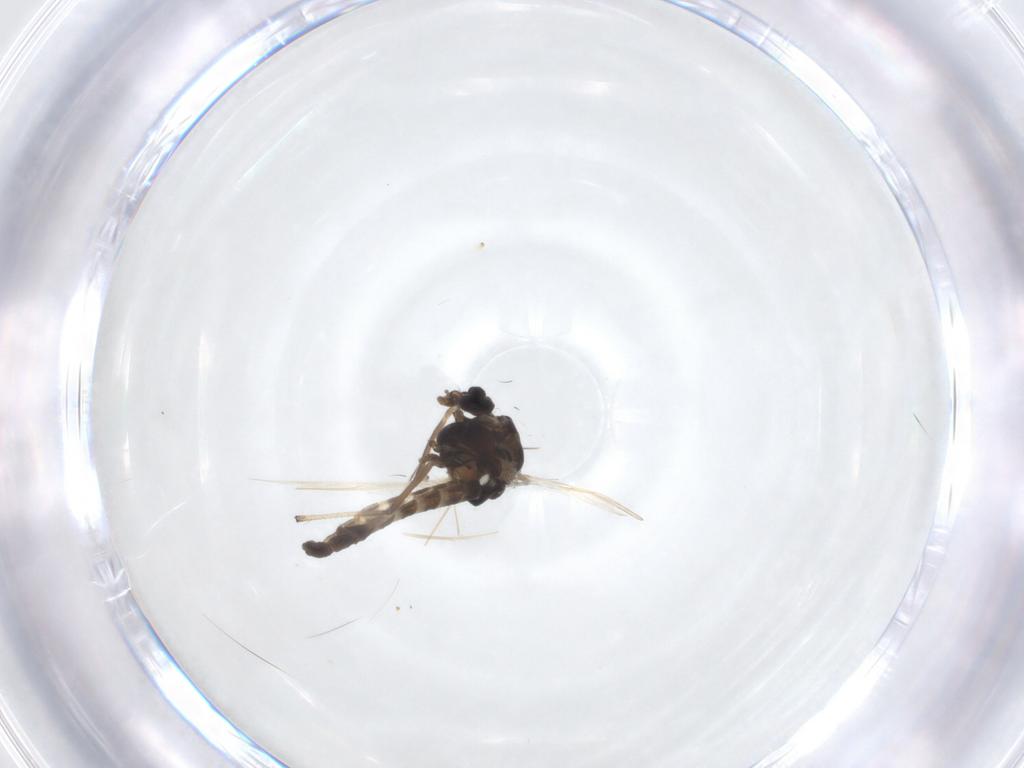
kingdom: Animalia
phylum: Arthropoda
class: Insecta
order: Diptera
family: Chironomidae
